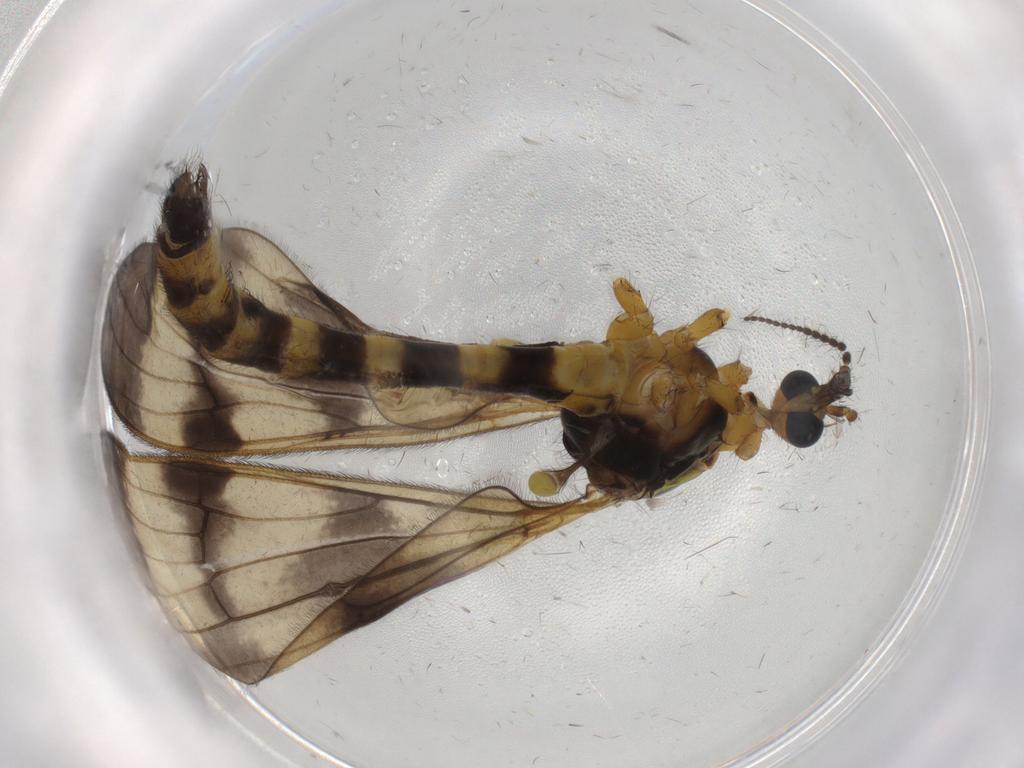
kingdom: Animalia
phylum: Arthropoda
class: Insecta
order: Diptera
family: Limoniidae
